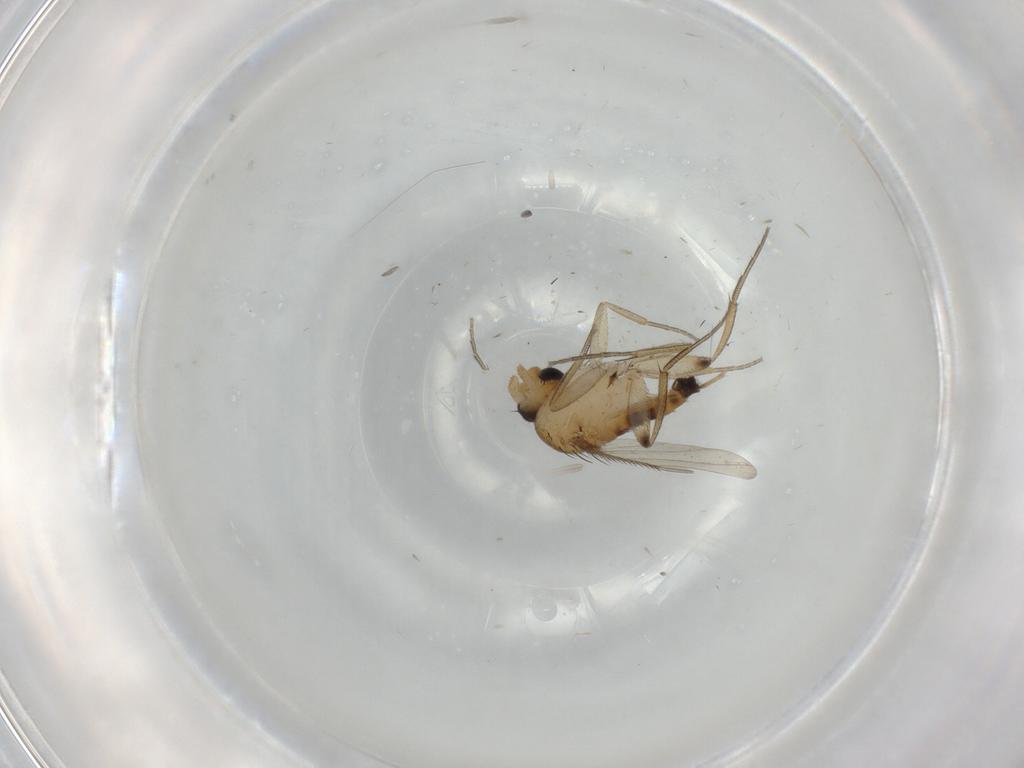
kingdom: Animalia
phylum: Arthropoda
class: Insecta
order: Diptera
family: Phoridae
